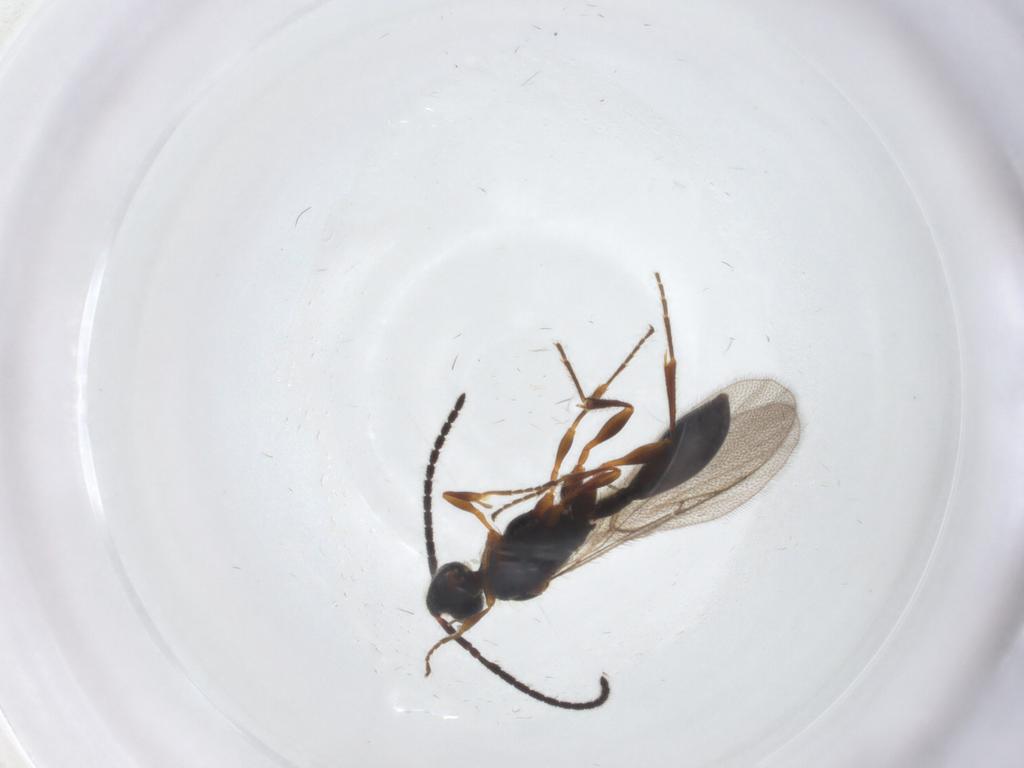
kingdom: Animalia
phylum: Arthropoda
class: Insecta
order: Hymenoptera
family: Diapriidae
